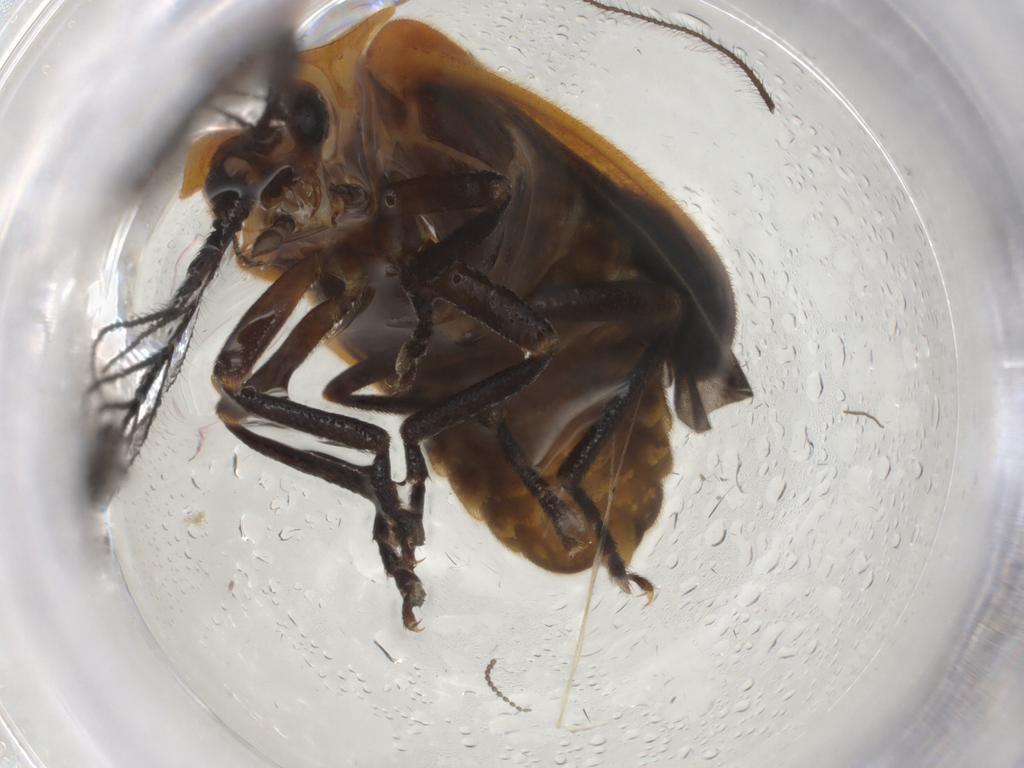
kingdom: Animalia
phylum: Arthropoda
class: Insecta
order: Coleoptera
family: Lampyridae
